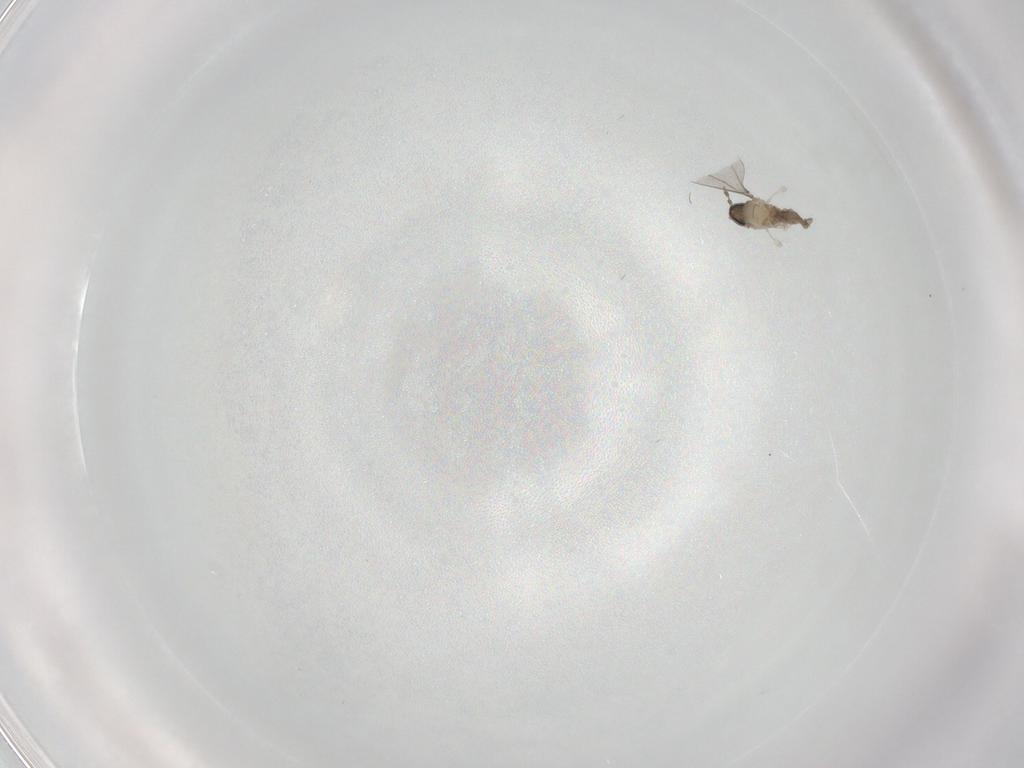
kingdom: Animalia
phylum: Arthropoda
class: Insecta
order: Diptera
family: Cecidomyiidae
